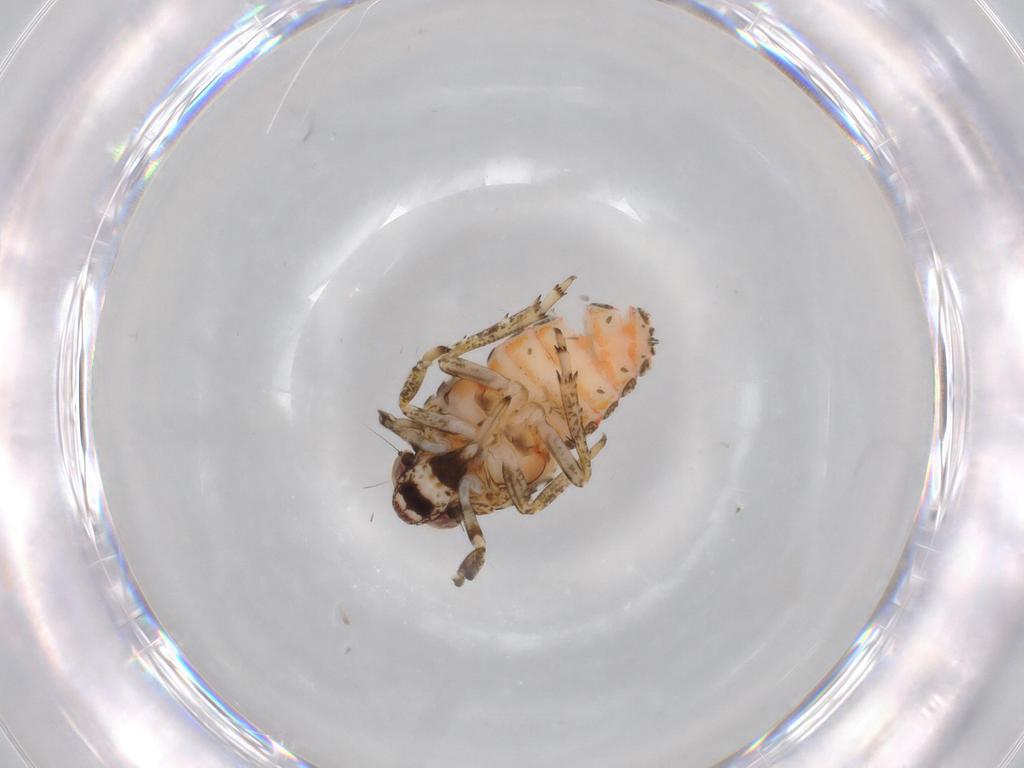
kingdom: Animalia
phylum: Arthropoda
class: Insecta
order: Hemiptera
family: Issidae
